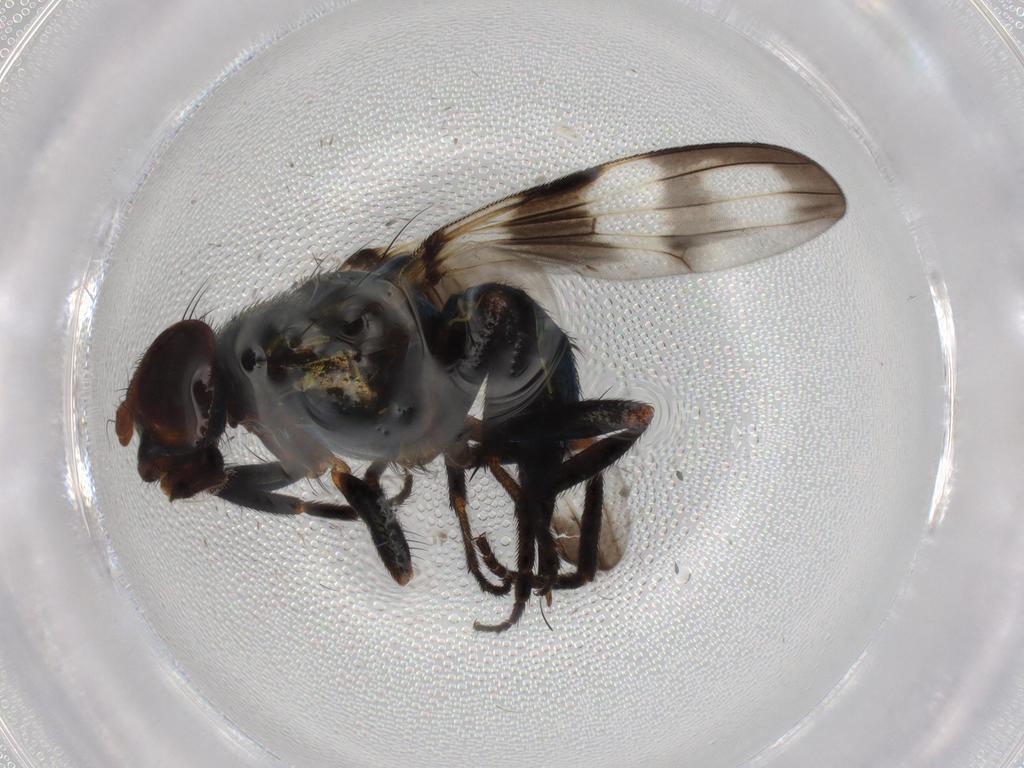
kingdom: Animalia
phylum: Arthropoda
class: Insecta
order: Diptera
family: Ulidiidae
